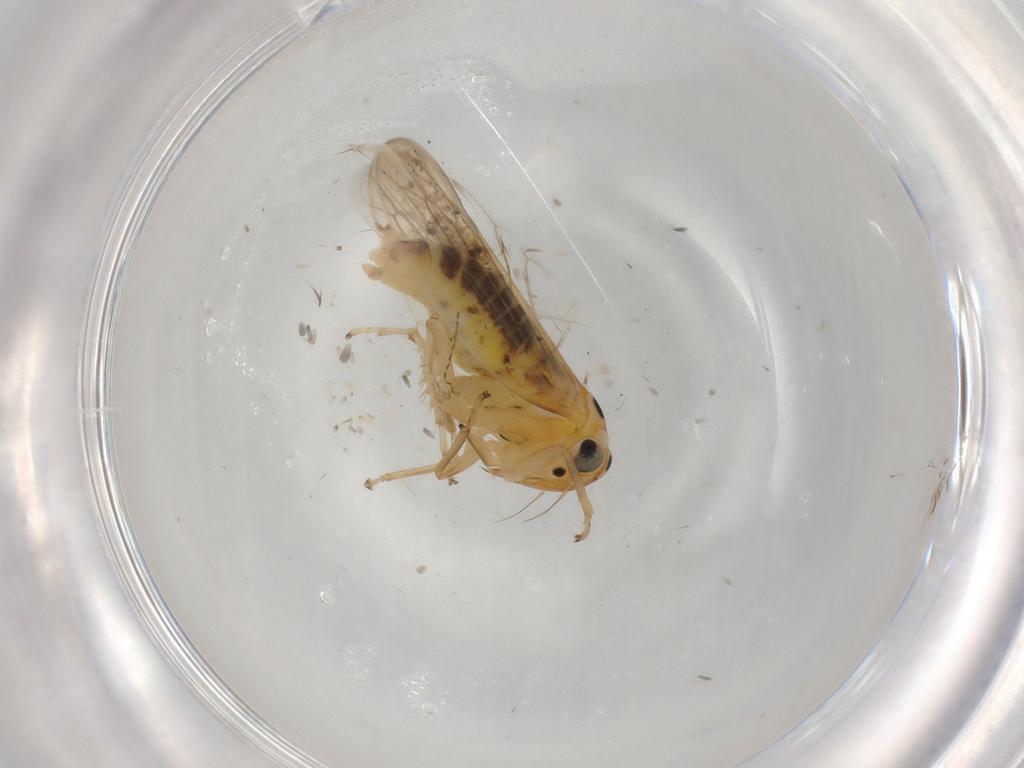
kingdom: Animalia
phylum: Arthropoda
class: Insecta
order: Hemiptera
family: Cicadellidae
